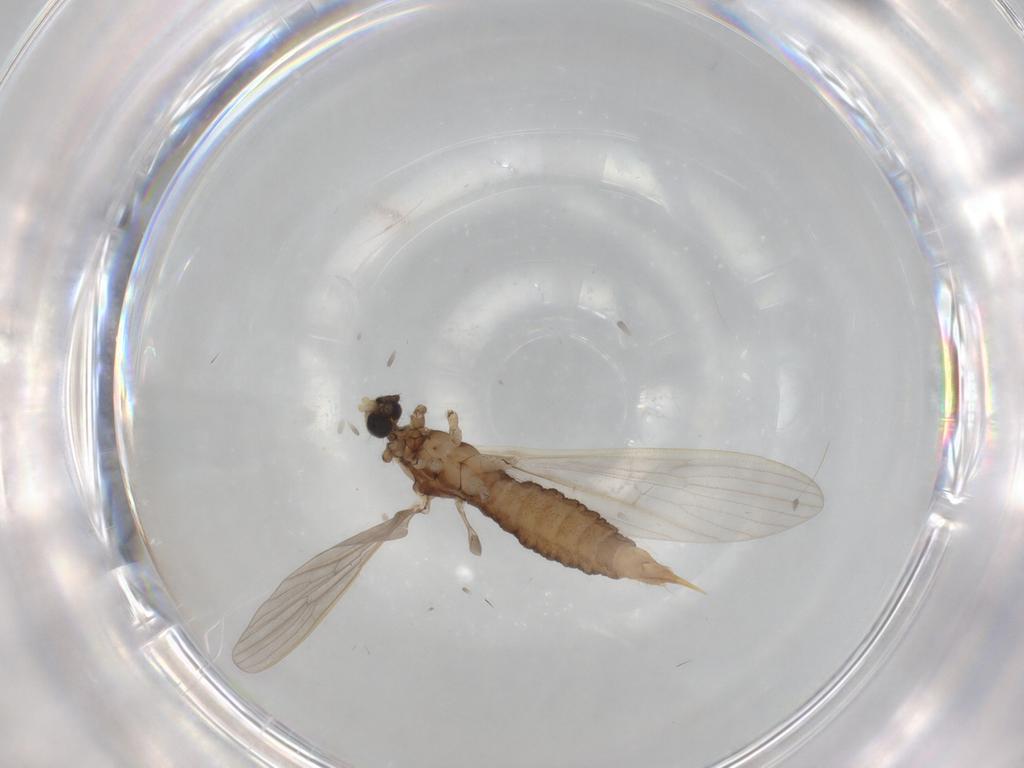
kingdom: Animalia
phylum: Arthropoda
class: Insecta
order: Diptera
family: Limoniidae
